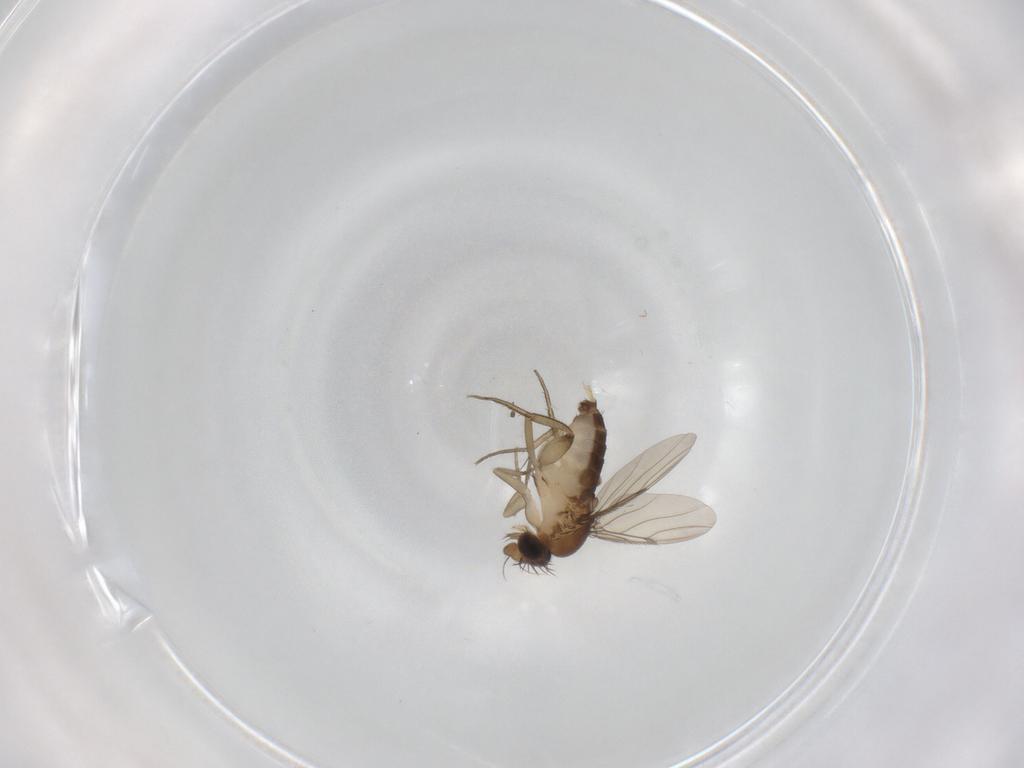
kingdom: Animalia
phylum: Arthropoda
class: Insecta
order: Diptera
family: Phoridae
